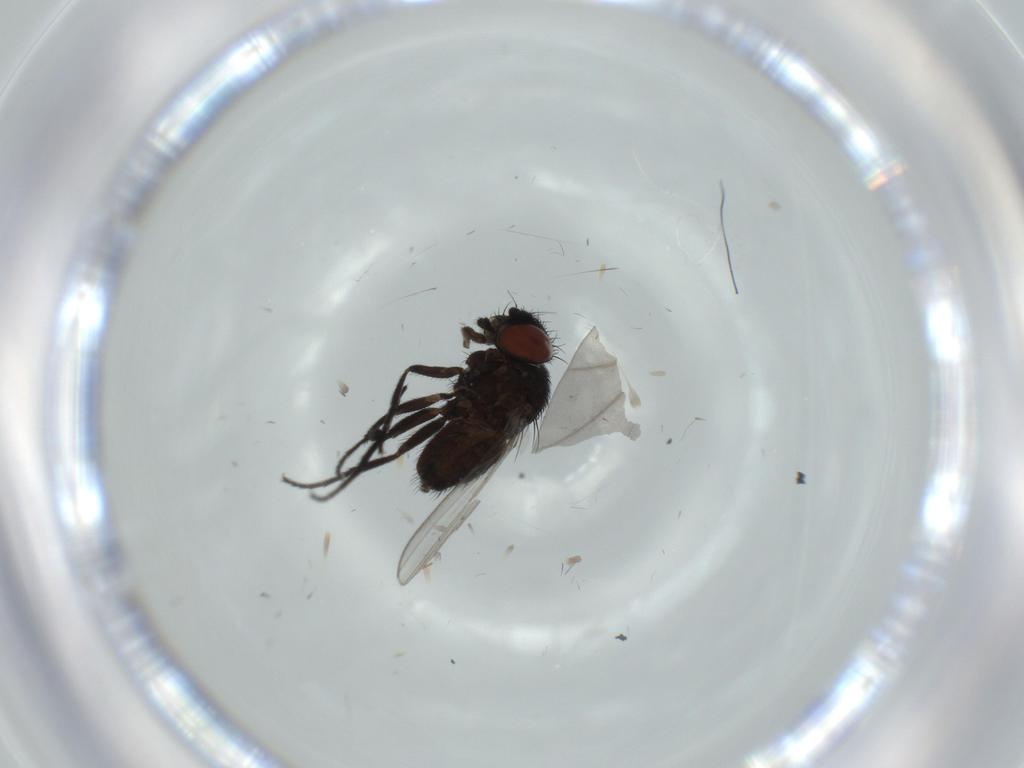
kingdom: Animalia
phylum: Arthropoda
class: Insecta
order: Diptera
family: Milichiidae
